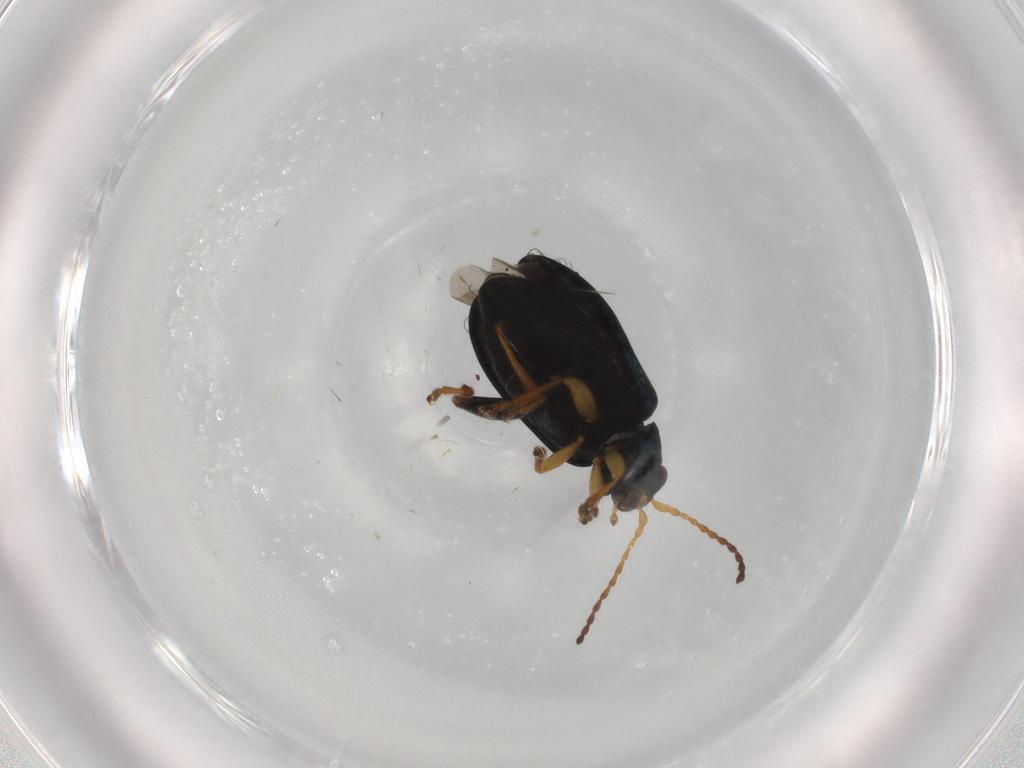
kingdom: Animalia
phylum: Arthropoda
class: Insecta
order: Coleoptera
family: Chrysomelidae
